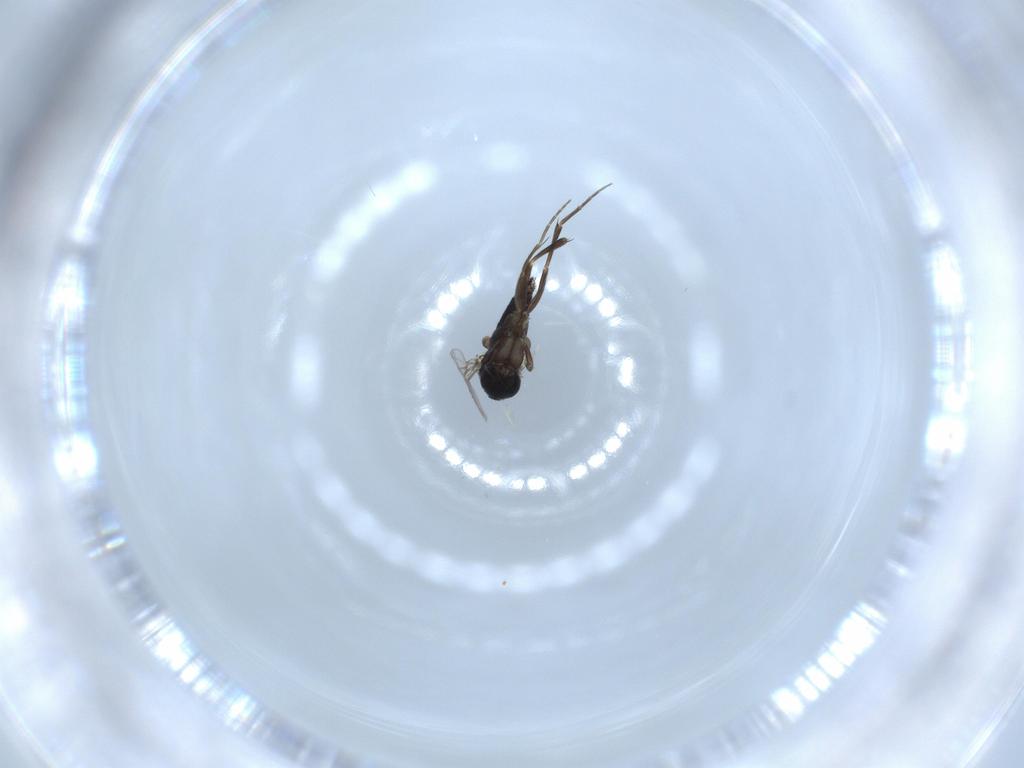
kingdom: Animalia
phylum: Arthropoda
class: Insecta
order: Diptera
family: Phoridae
